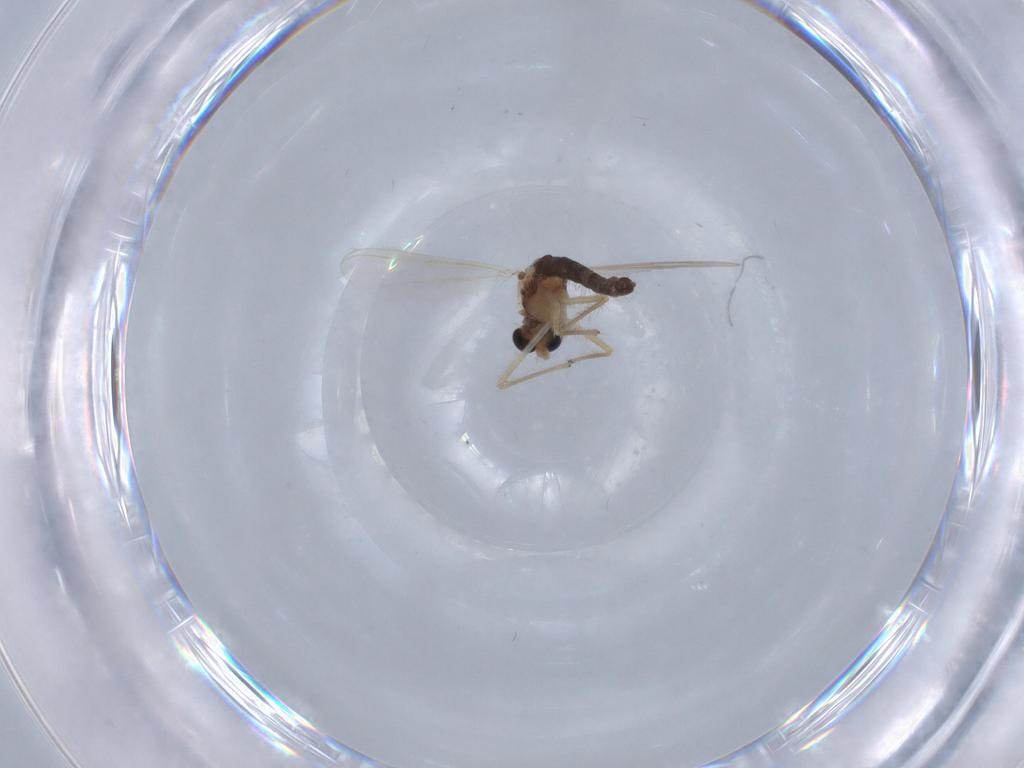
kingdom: Animalia
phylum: Arthropoda
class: Insecta
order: Diptera
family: Chironomidae
